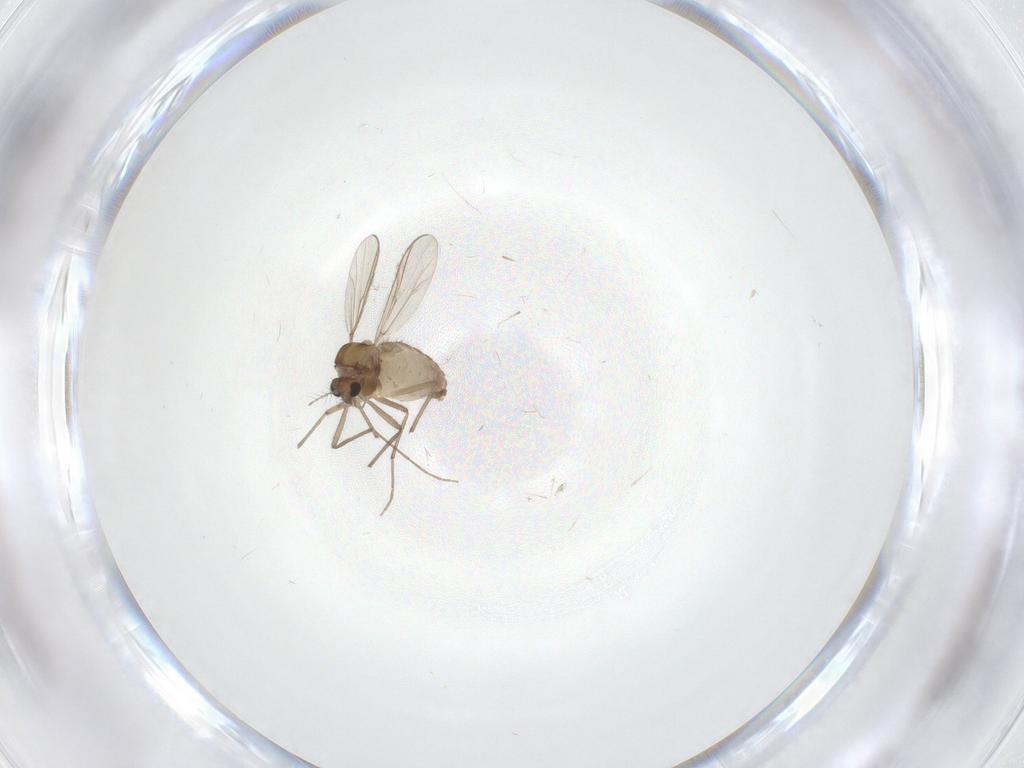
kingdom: Animalia
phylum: Arthropoda
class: Insecta
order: Diptera
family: Chironomidae
